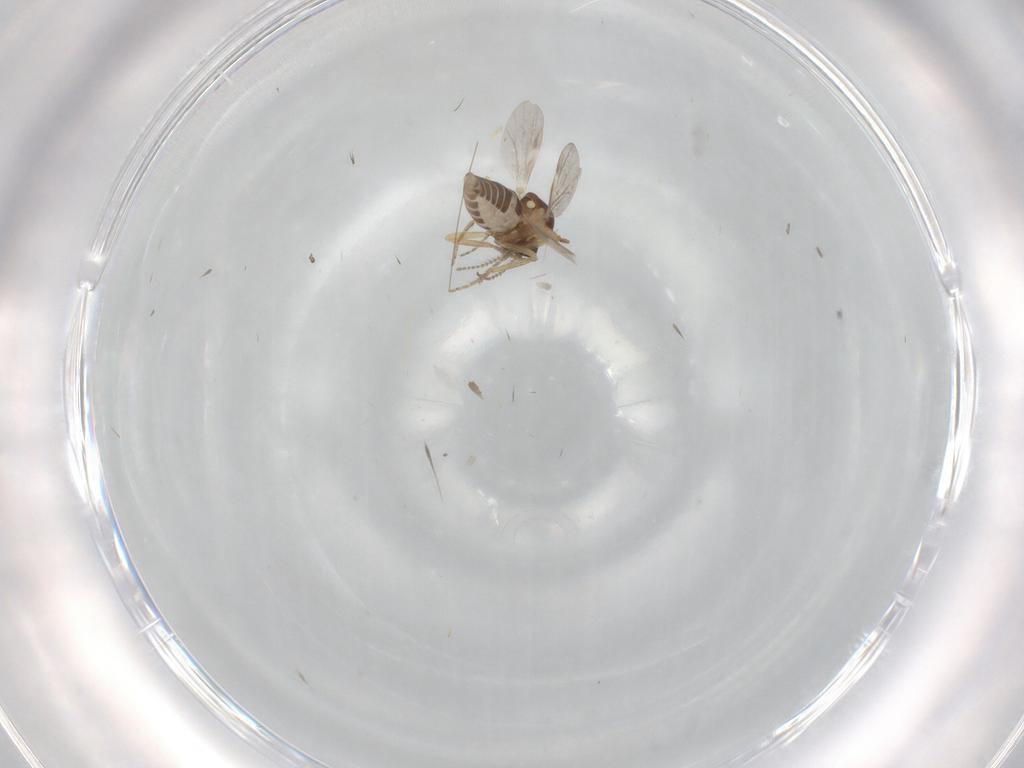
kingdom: Animalia
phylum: Arthropoda
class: Insecta
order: Diptera
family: Ceratopogonidae
